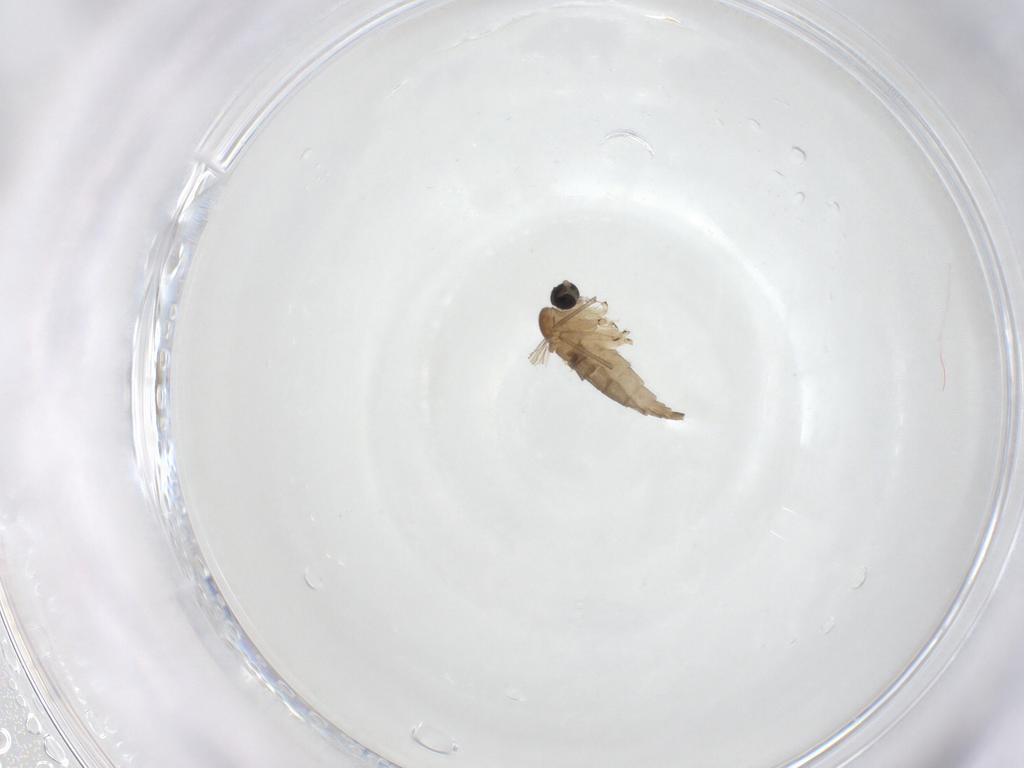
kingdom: Animalia
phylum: Arthropoda
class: Insecta
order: Diptera
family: Sciaridae
